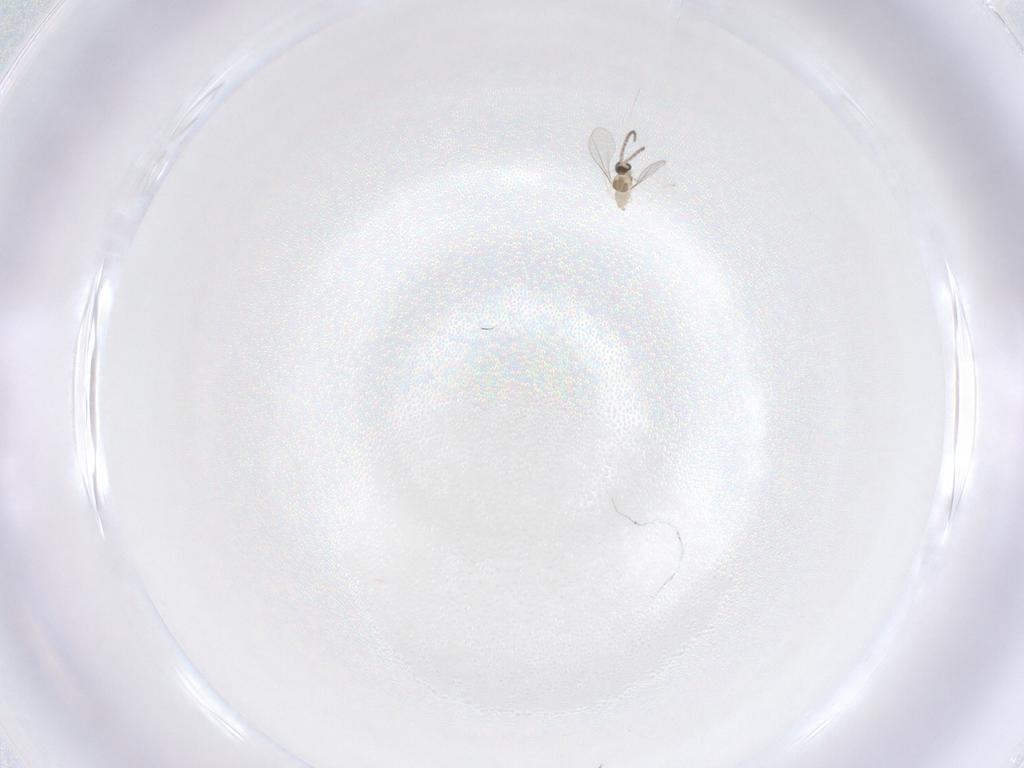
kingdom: Animalia
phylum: Arthropoda
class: Insecta
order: Diptera
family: Cecidomyiidae
